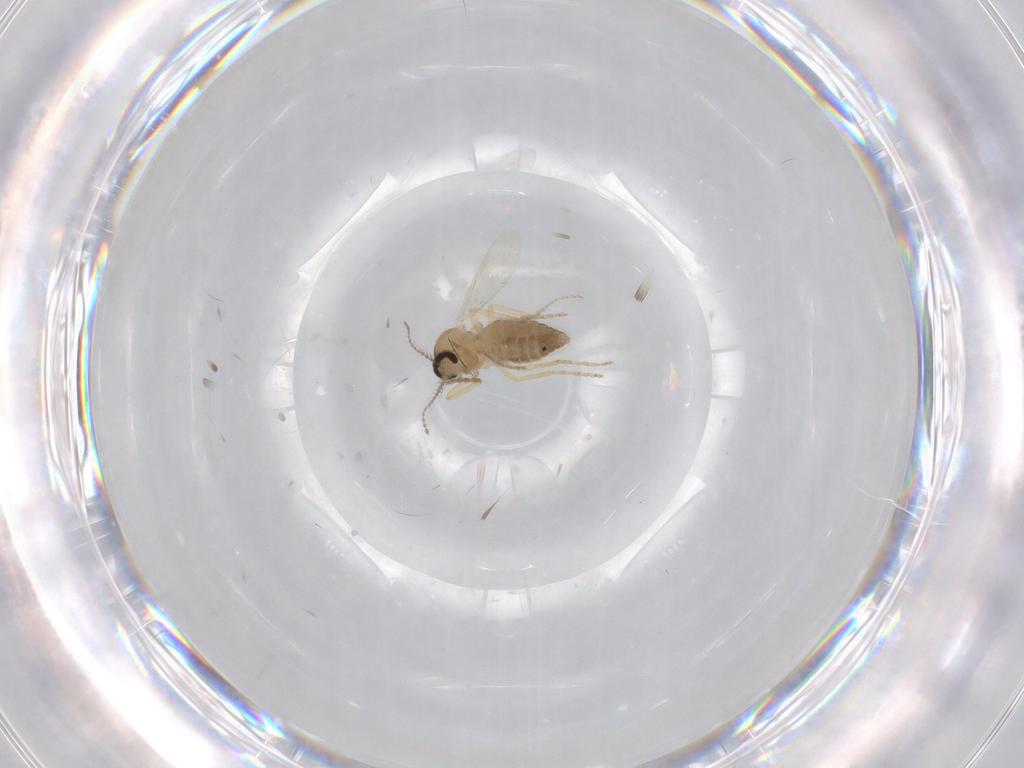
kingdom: Animalia
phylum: Arthropoda
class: Insecta
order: Diptera
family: Ceratopogonidae
